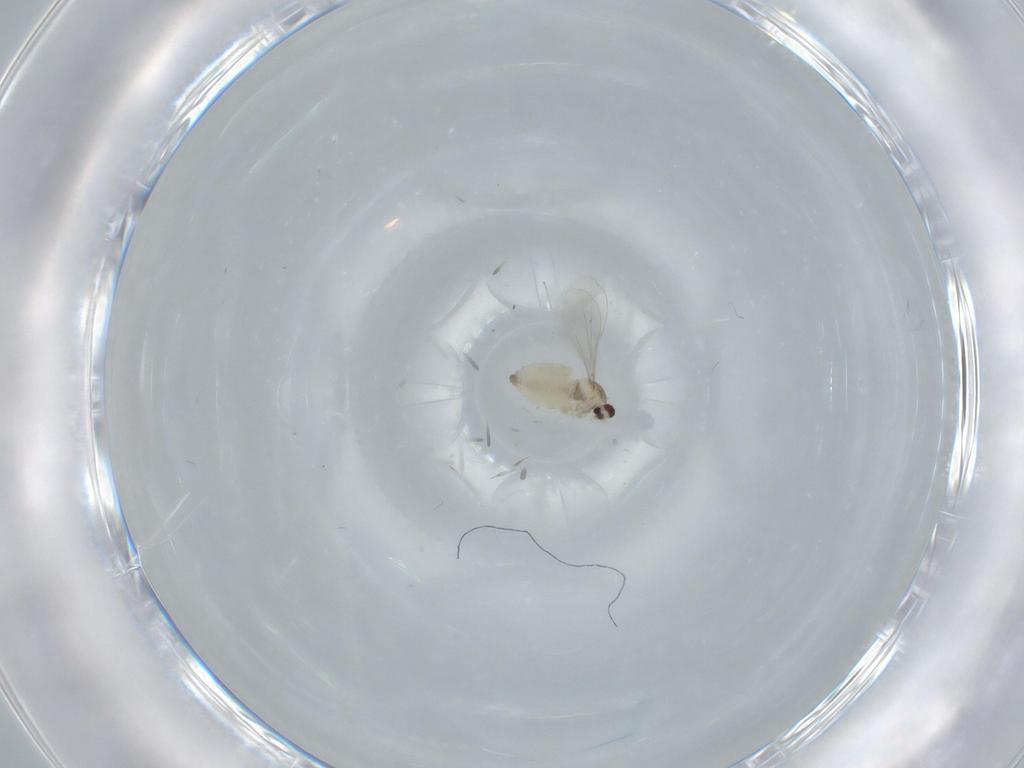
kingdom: Animalia
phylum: Arthropoda
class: Insecta
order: Diptera
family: Cecidomyiidae
